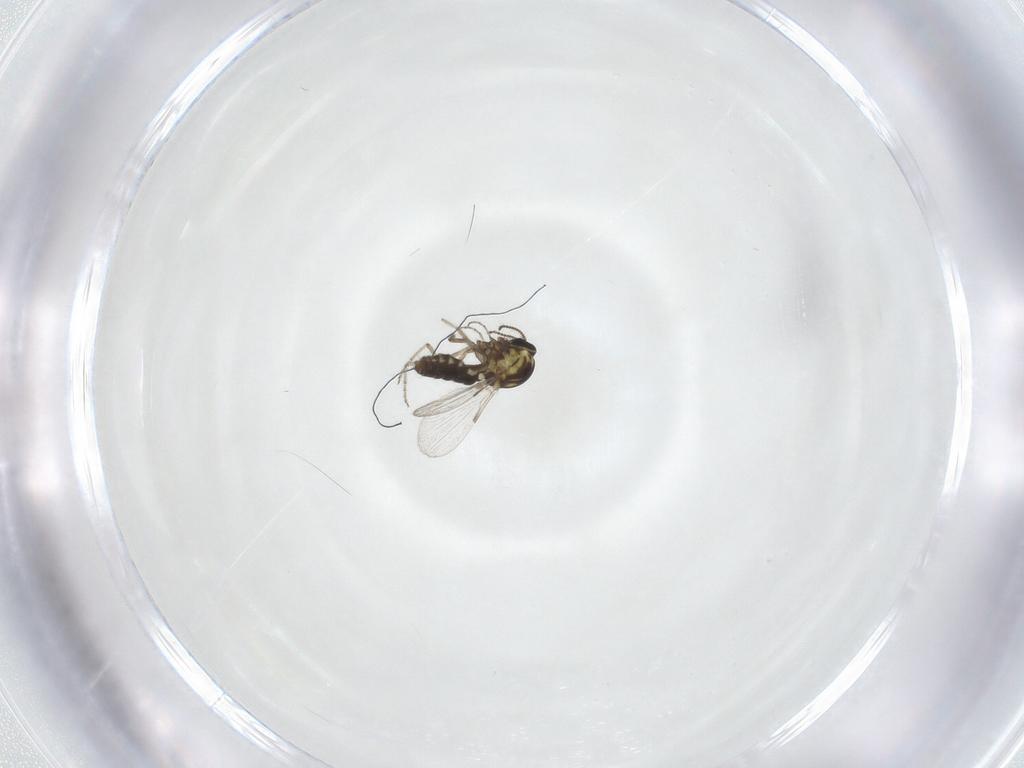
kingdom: Animalia
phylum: Arthropoda
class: Insecta
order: Diptera
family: Ceratopogonidae
